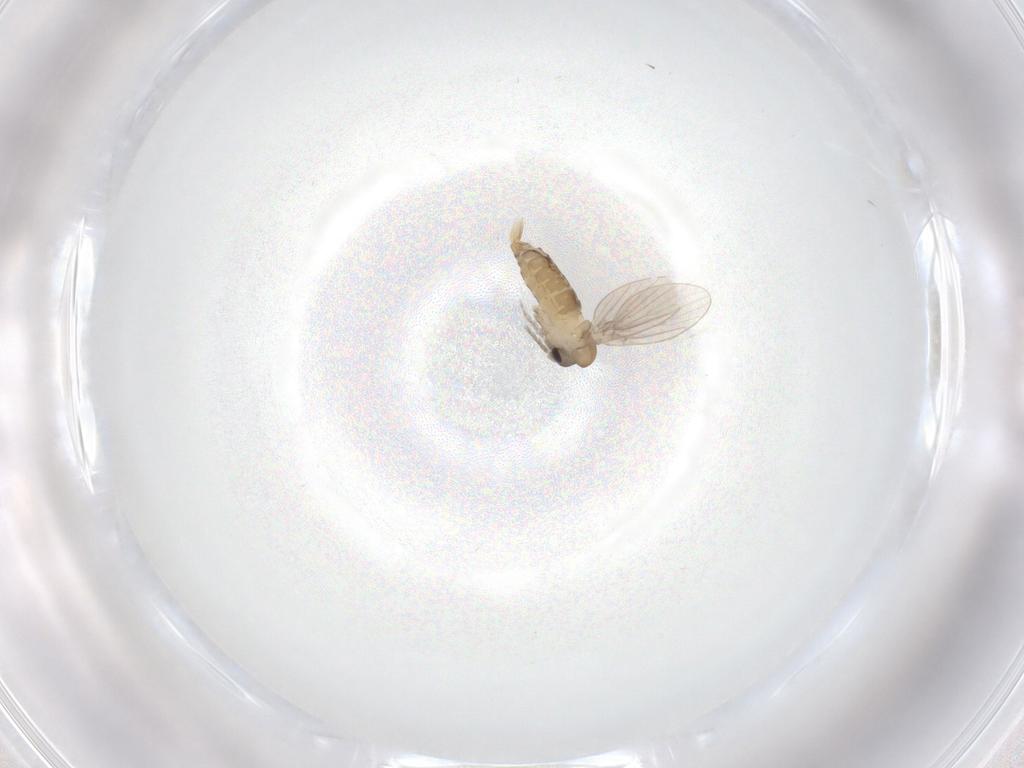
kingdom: Animalia
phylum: Arthropoda
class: Insecta
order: Diptera
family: Psychodidae
